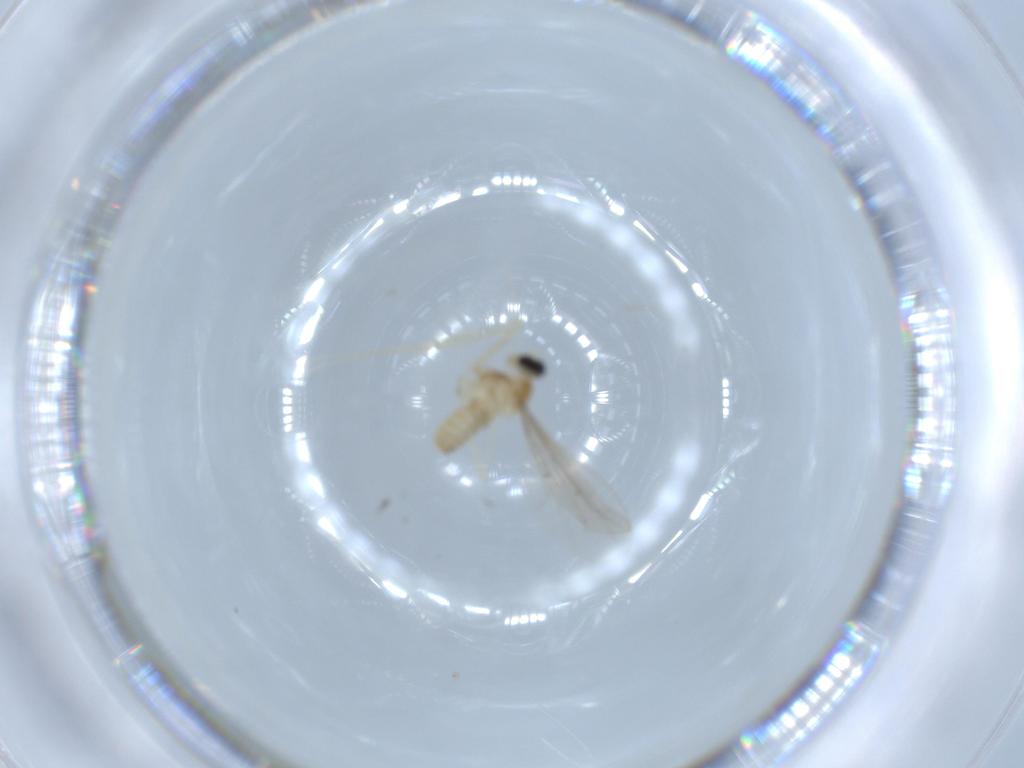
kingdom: Animalia
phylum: Arthropoda
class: Insecta
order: Diptera
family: Cecidomyiidae
